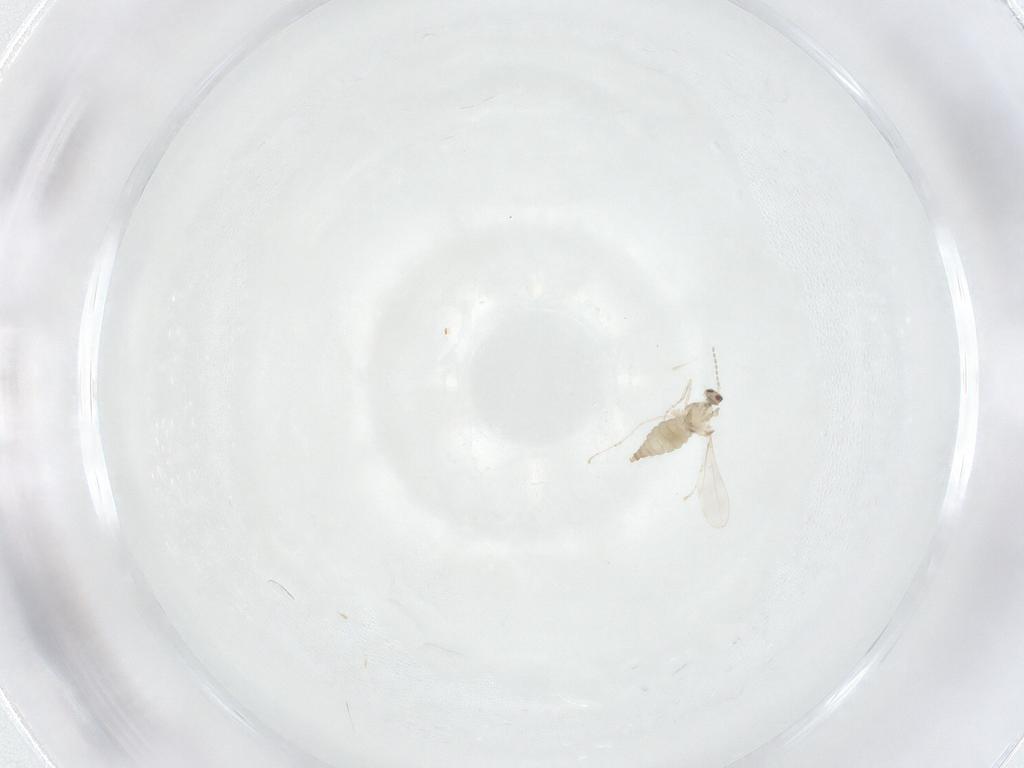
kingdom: Animalia
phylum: Arthropoda
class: Insecta
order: Diptera
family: Cecidomyiidae
